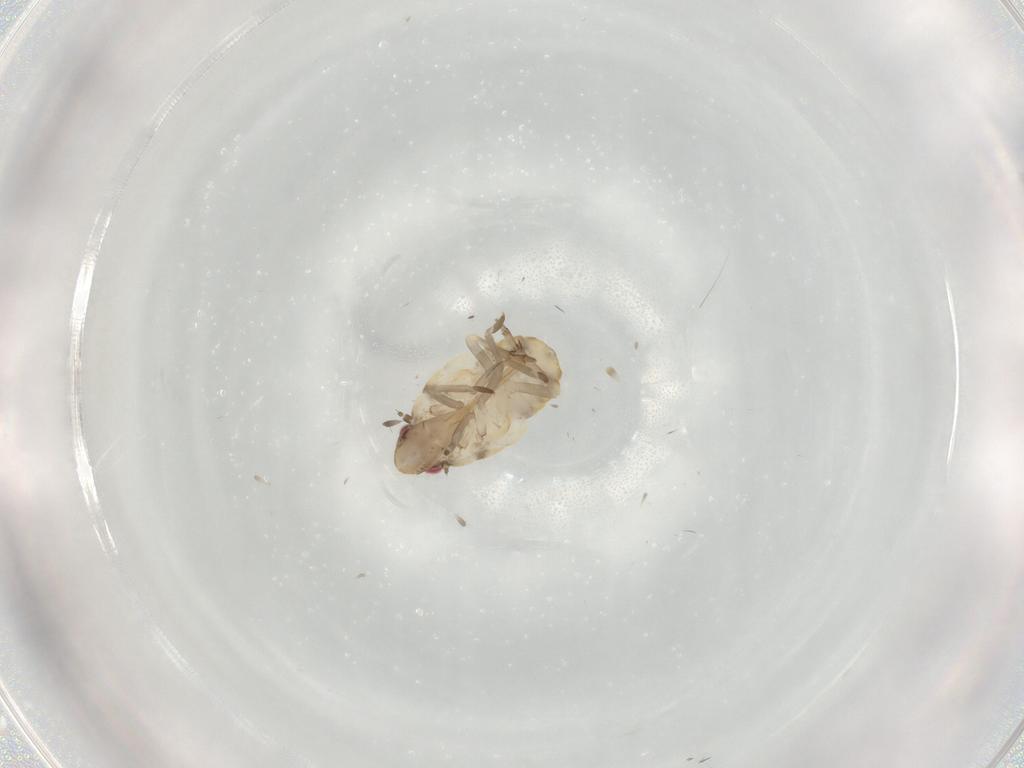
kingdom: Animalia
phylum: Arthropoda
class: Insecta
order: Hemiptera
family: Flatidae
